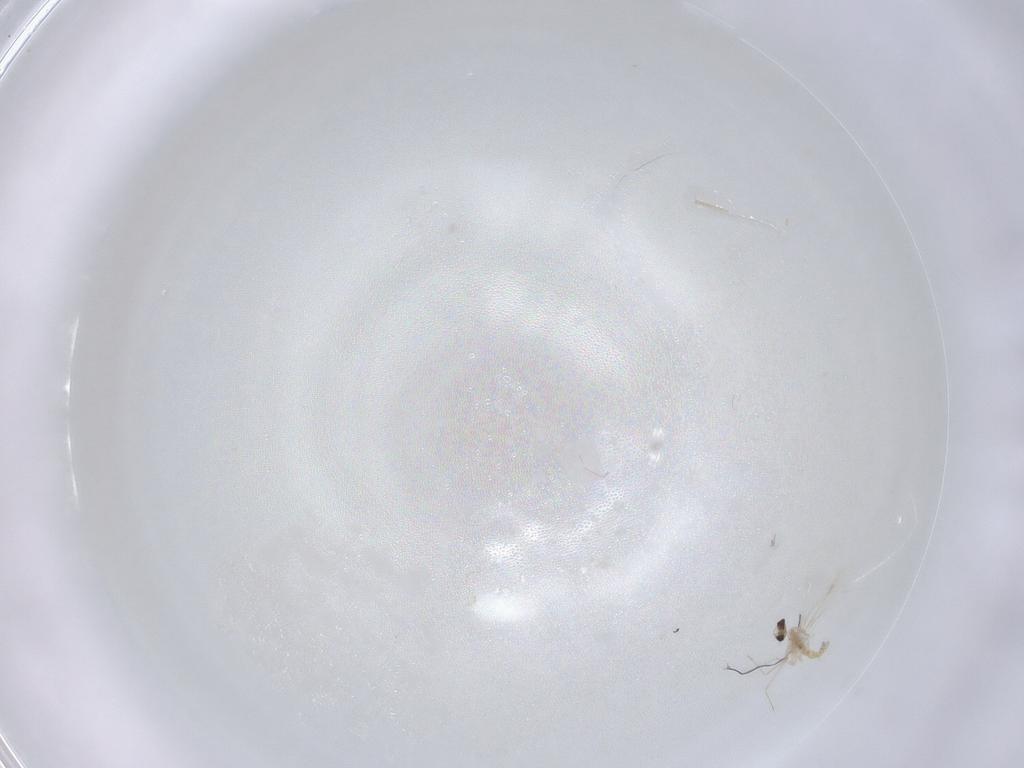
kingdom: Animalia
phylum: Arthropoda
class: Insecta
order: Diptera
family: Cecidomyiidae
